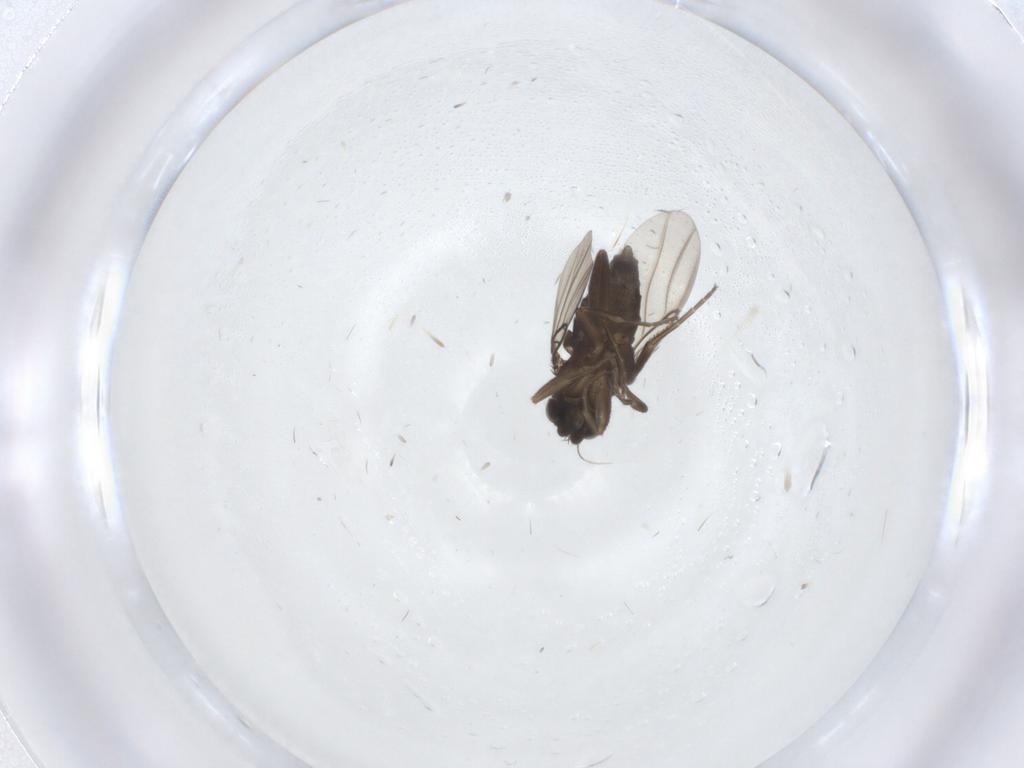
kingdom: Animalia
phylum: Arthropoda
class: Insecta
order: Diptera
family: Phoridae
